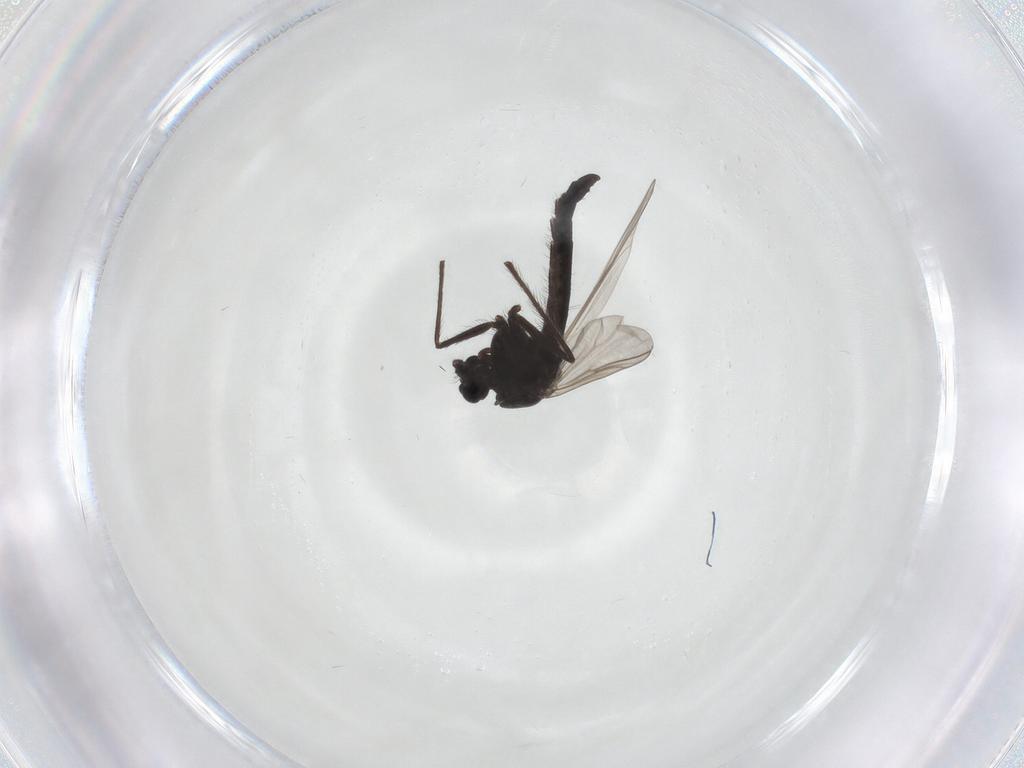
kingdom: Animalia
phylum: Arthropoda
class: Insecta
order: Diptera
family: Chironomidae
